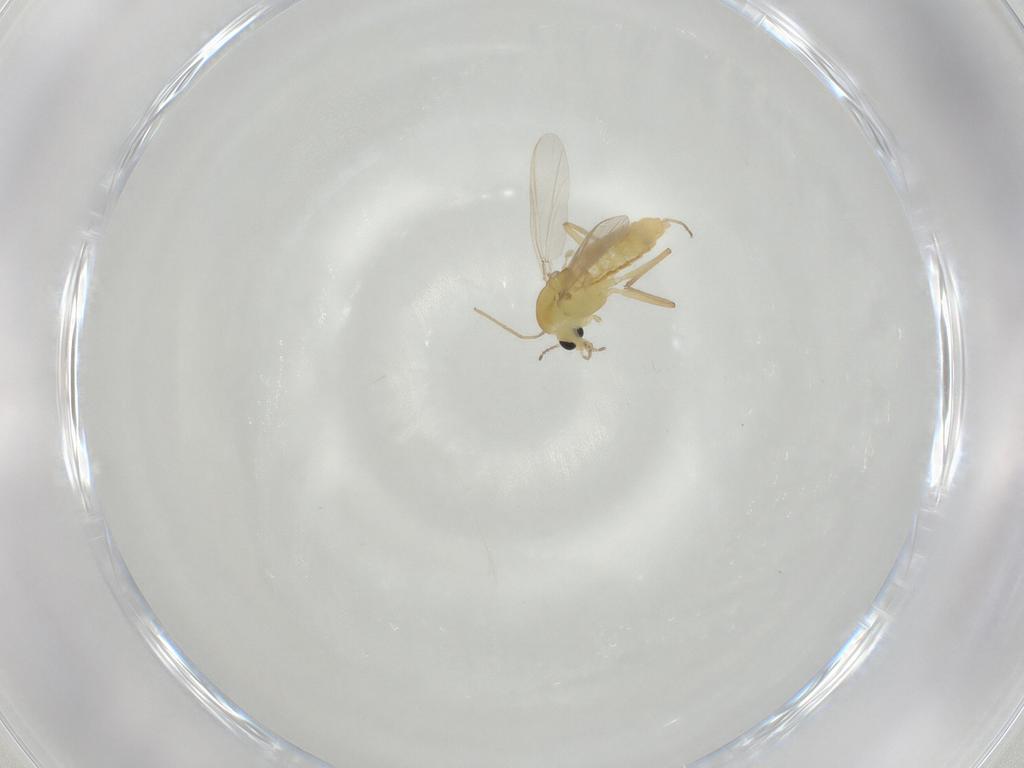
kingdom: Animalia
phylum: Arthropoda
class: Insecta
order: Diptera
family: Chironomidae
